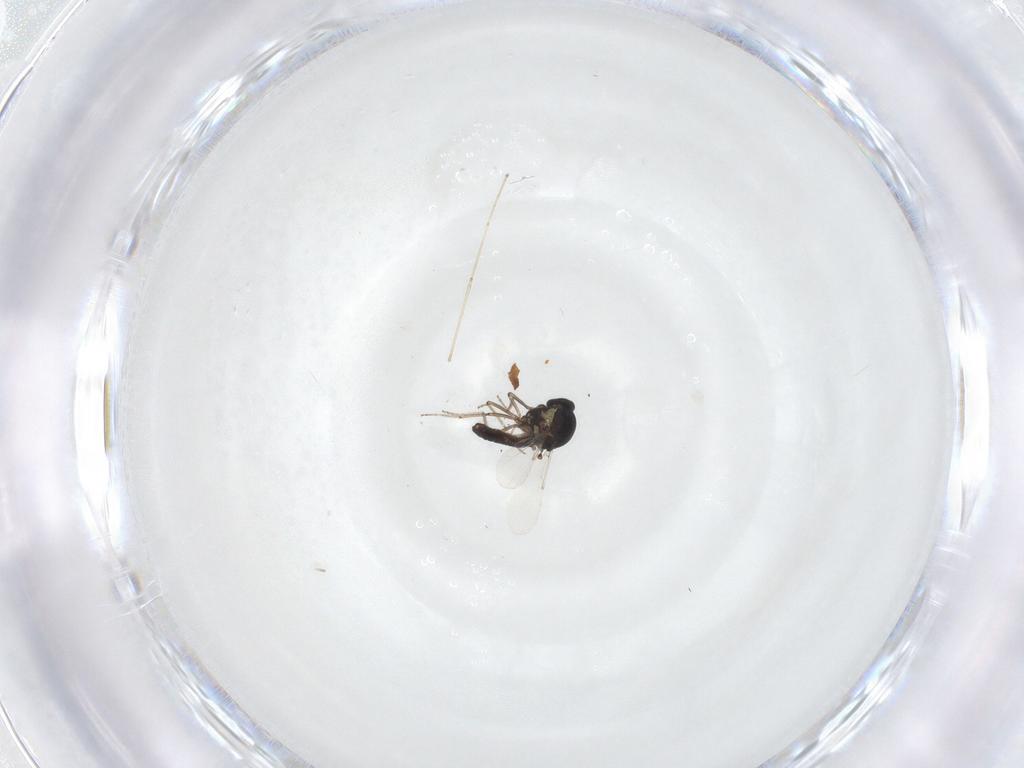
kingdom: Animalia
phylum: Arthropoda
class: Insecta
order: Diptera
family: Ceratopogonidae
